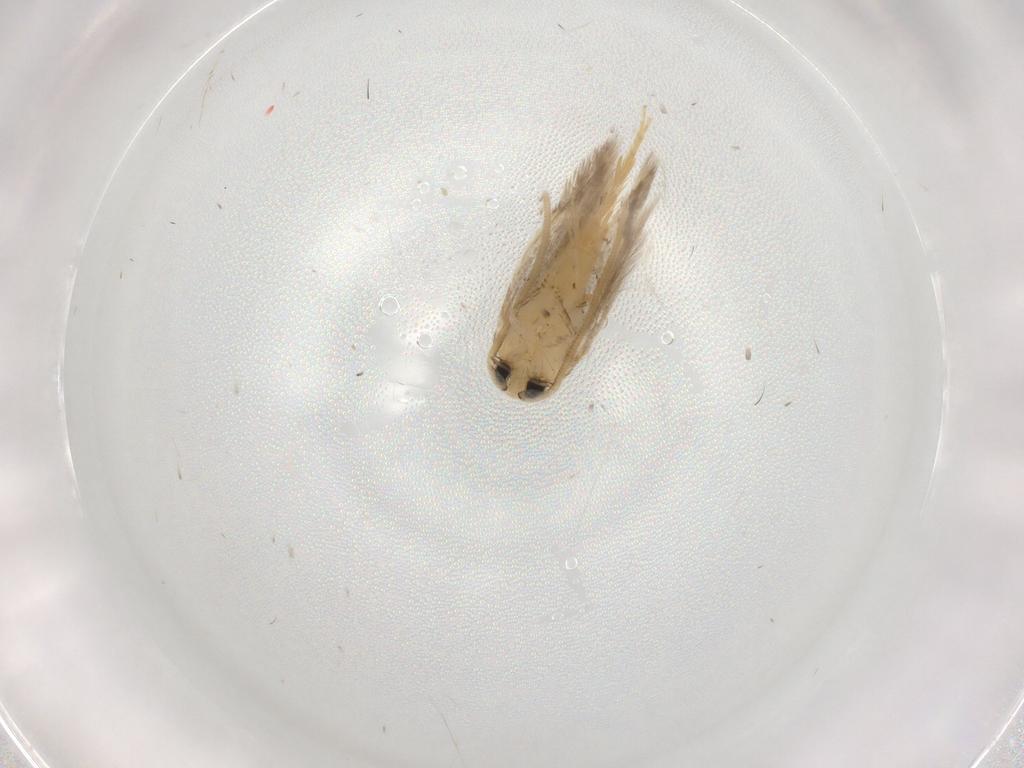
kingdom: Animalia
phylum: Arthropoda
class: Insecta
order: Lepidoptera
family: Opostegidae
